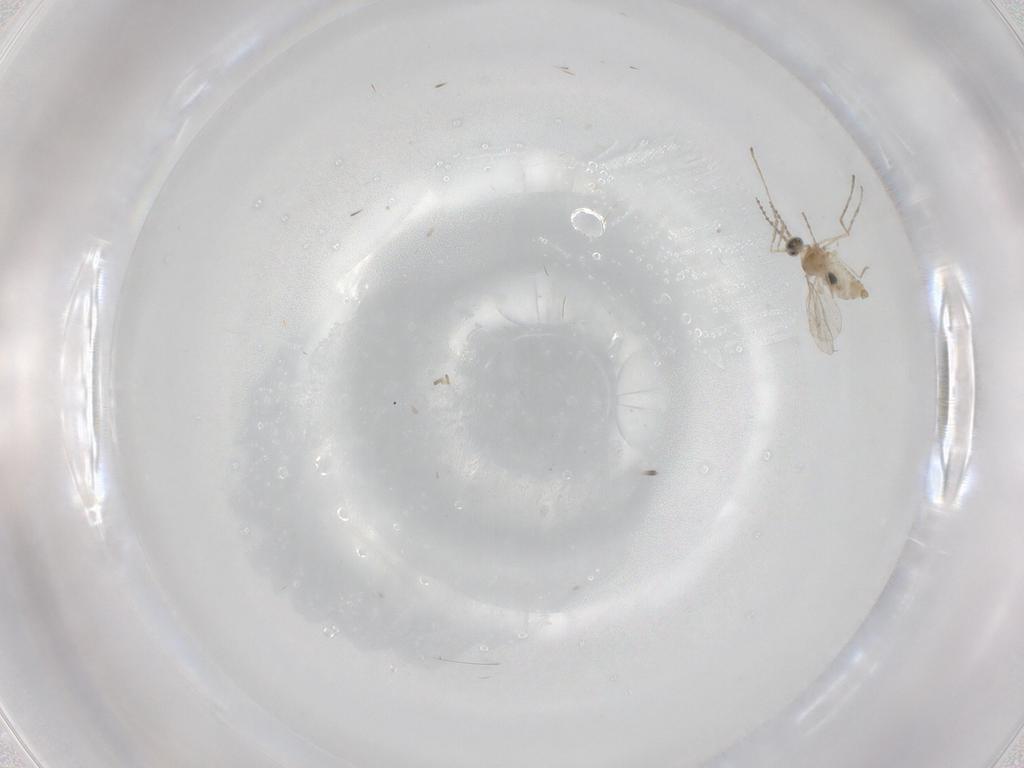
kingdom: Animalia
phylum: Arthropoda
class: Insecta
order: Diptera
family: Cecidomyiidae
